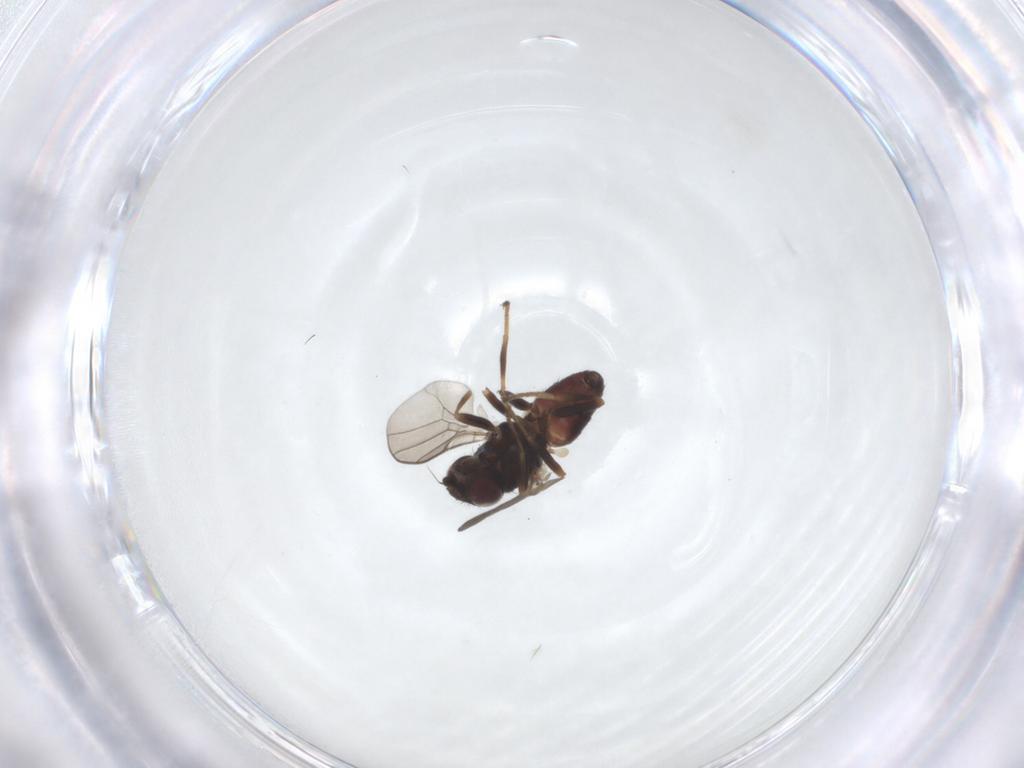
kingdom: Animalia
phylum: Arthropoda
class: Insecta
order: Diptera
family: Chloropidae
